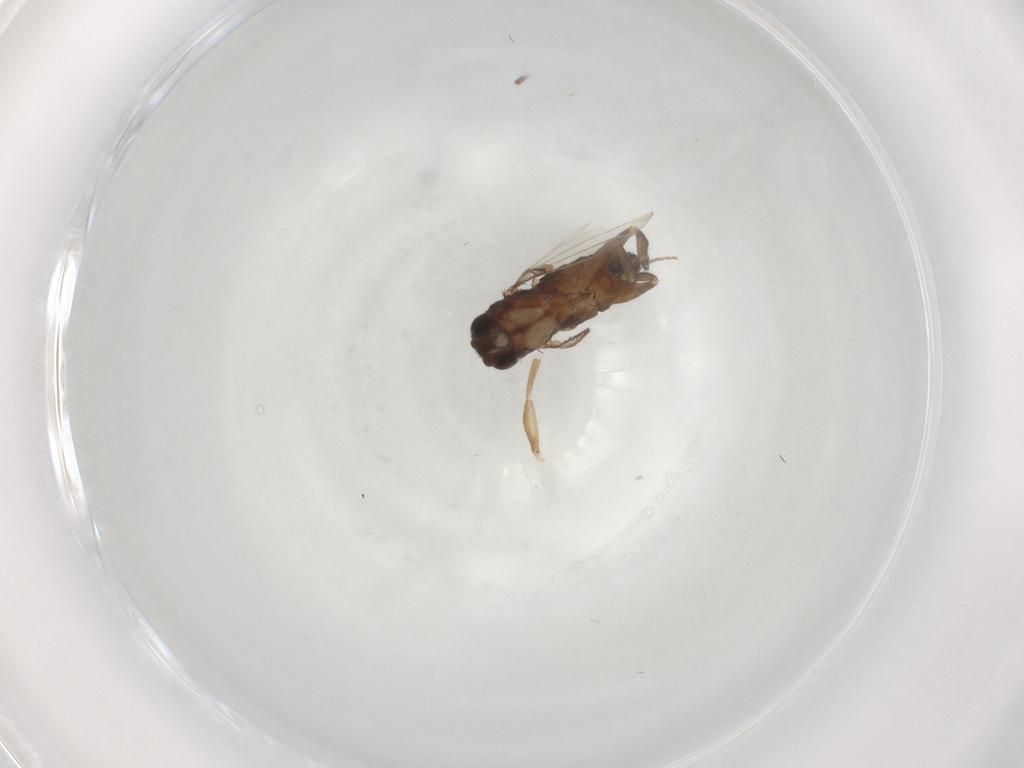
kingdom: Animalia
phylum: Arthropoda
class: Insecta
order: Diptera
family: Phoridae
